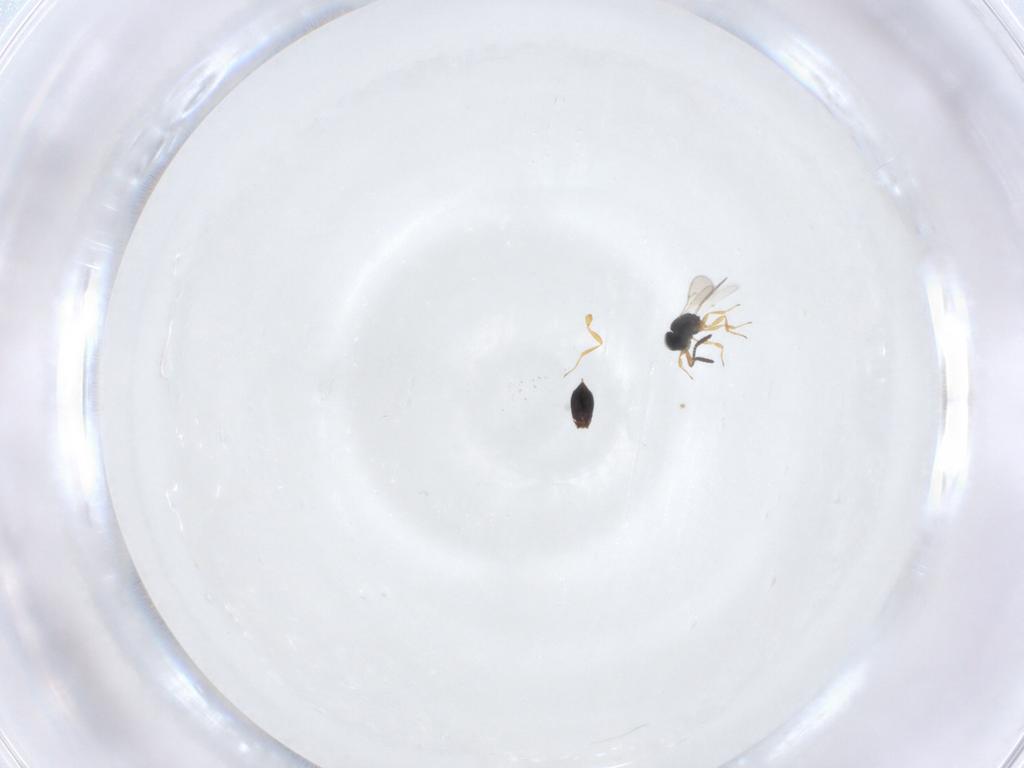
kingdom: Animalia
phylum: Arthropoda
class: Insecta
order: Hymenoptera
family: Scelionidae
